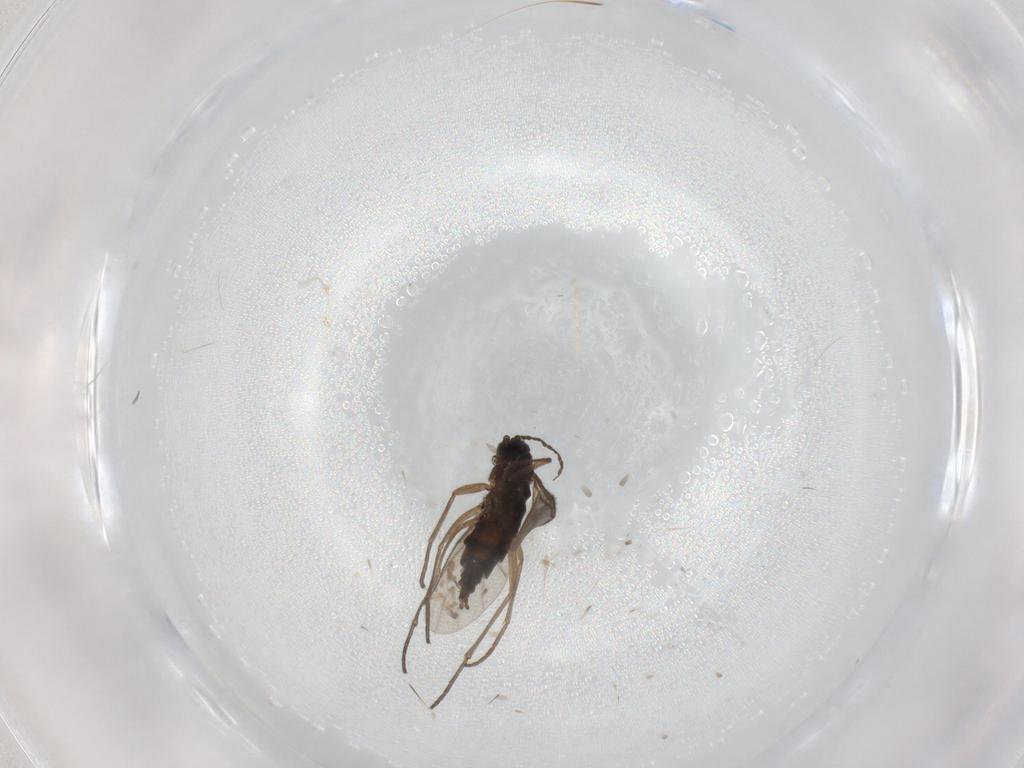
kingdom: Animalia
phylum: Arthropoda
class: Insecta
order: Diptera
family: Sciaridae
